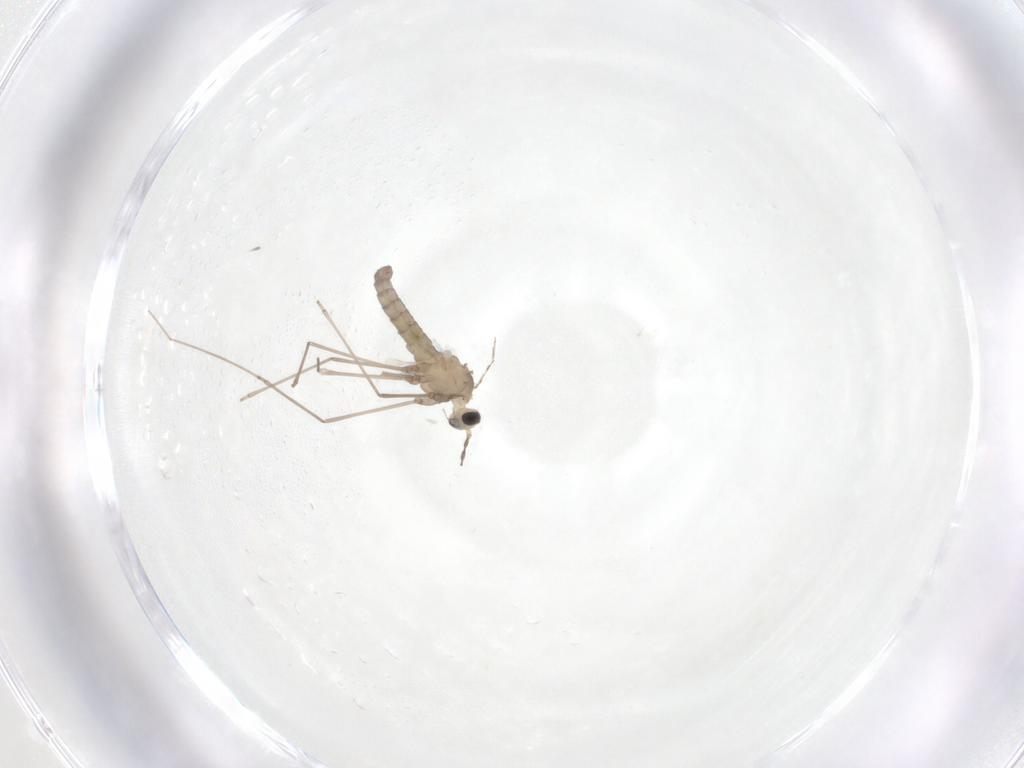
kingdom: Animalia
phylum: Arthropoda
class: Insecta
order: Diptera
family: Cecidomyiidae
